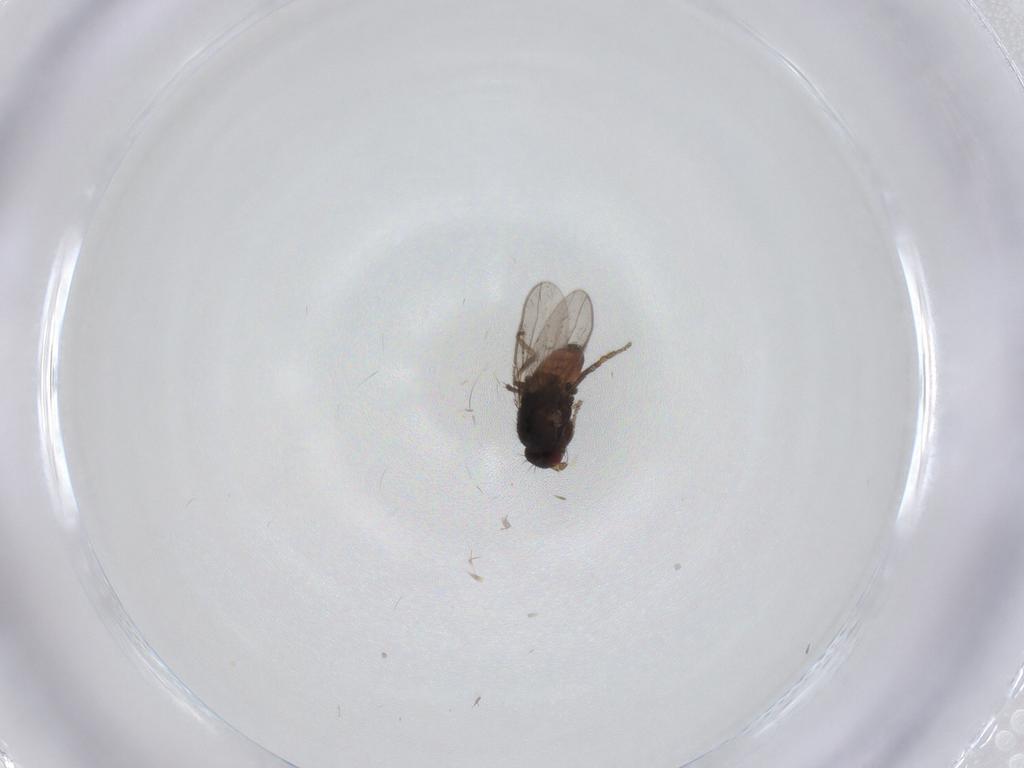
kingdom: Animalia
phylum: Arthropoda
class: Insecta
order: Diptera
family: Sphaeroceridae
